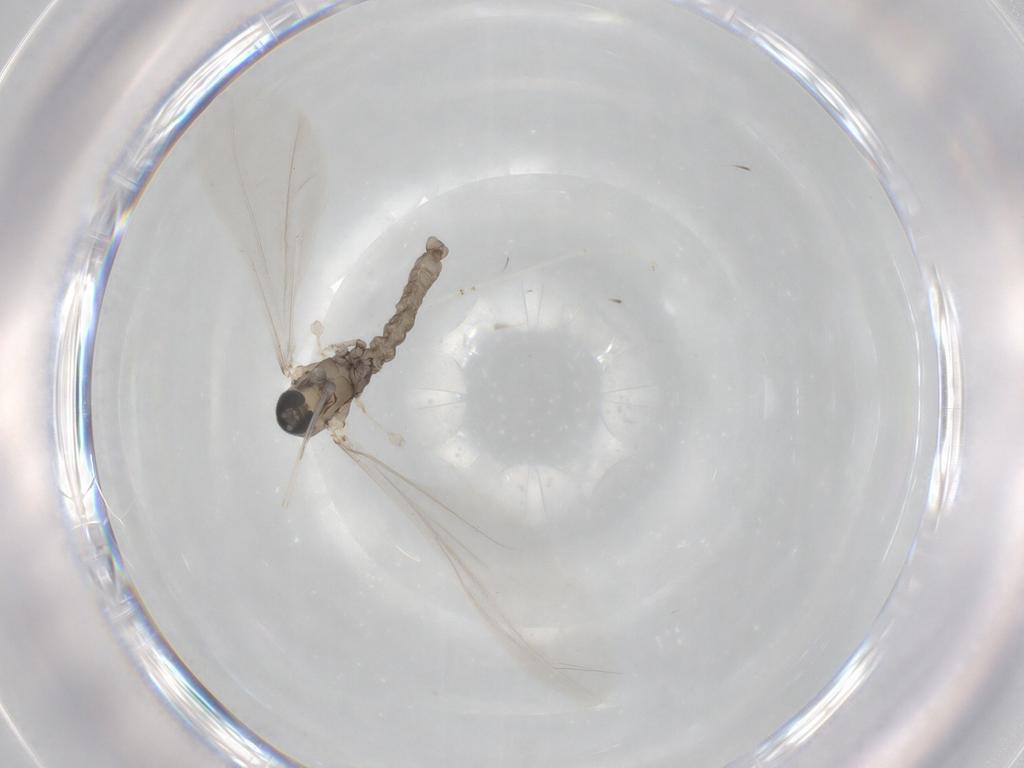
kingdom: Animalia
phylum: Arthropoda
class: Insecta
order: Diptera
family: Cecidomyiidae
